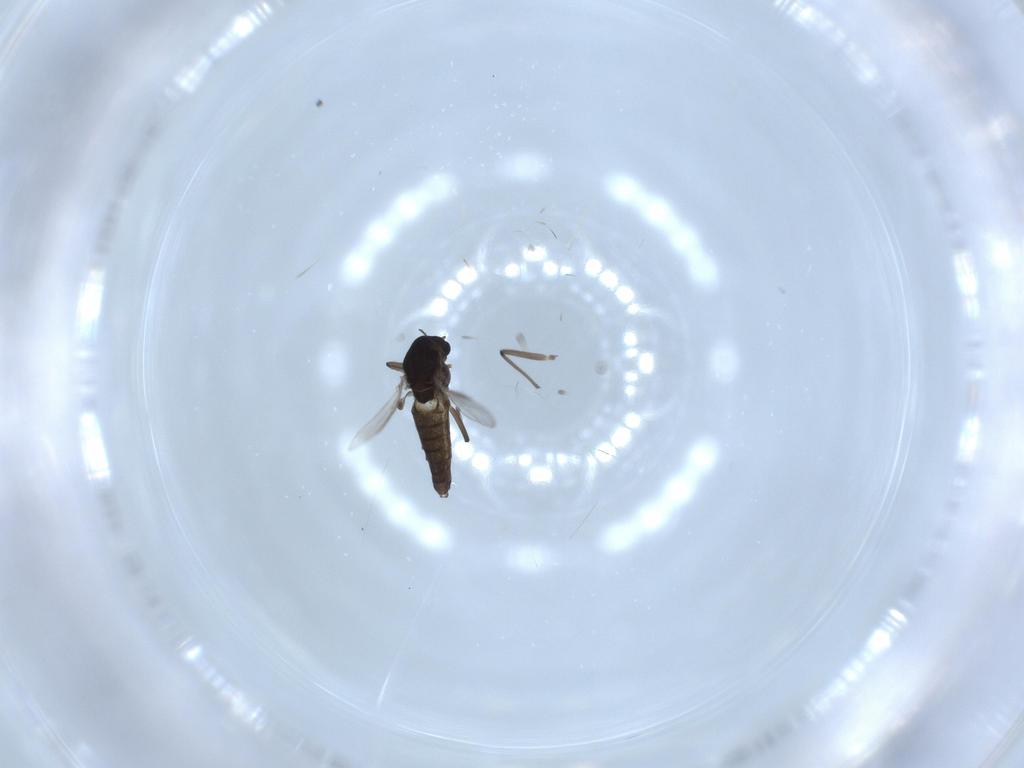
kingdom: Animalia
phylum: Arthropoda
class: Insecta
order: Diptera
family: Chironomidae
